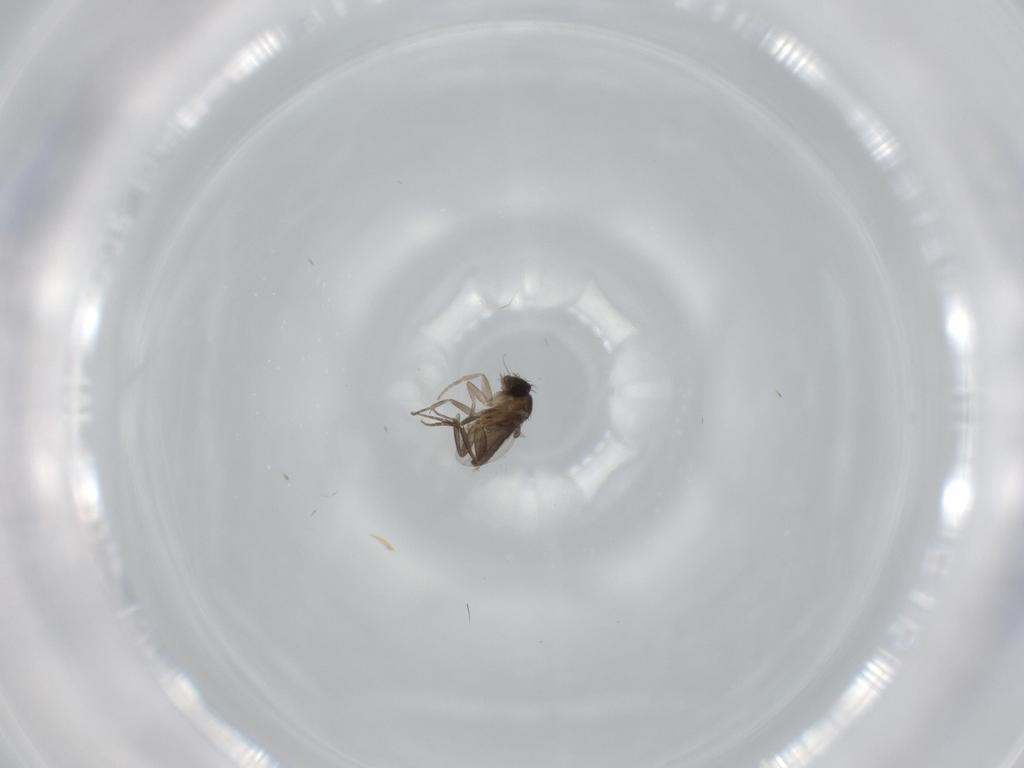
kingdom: Animalia
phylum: Arthropoda
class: Insecta
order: Diptera
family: Phoridae
